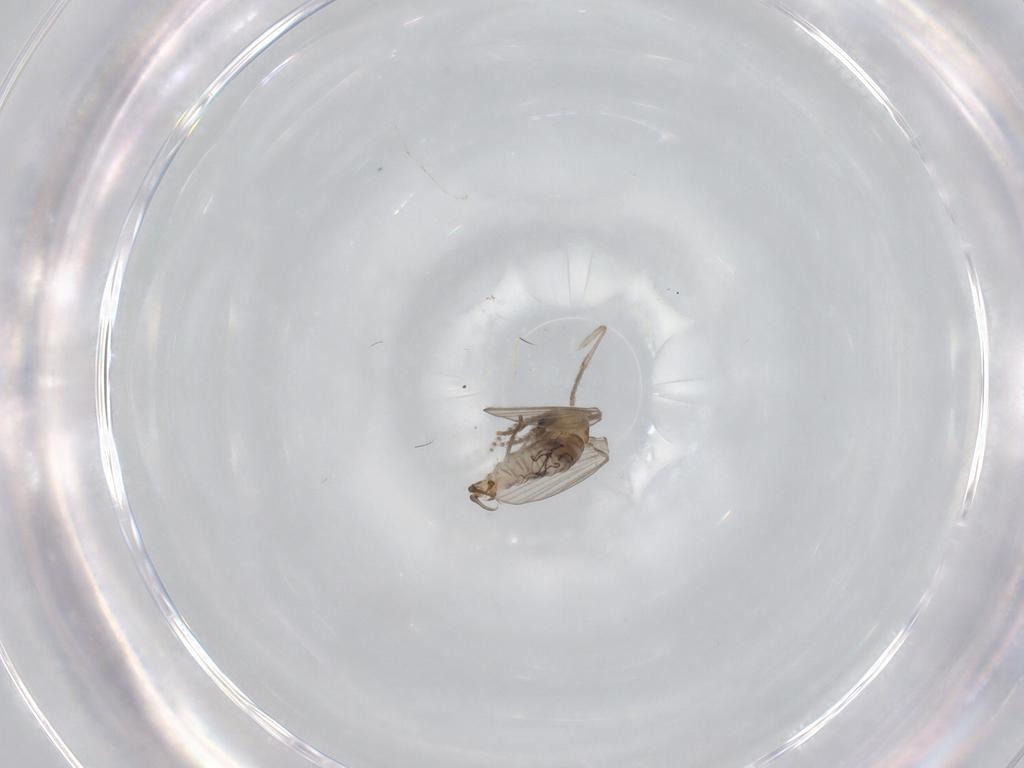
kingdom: Animalia
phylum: Arthropoda
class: Insecta
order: Diptera
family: Psychodidae
